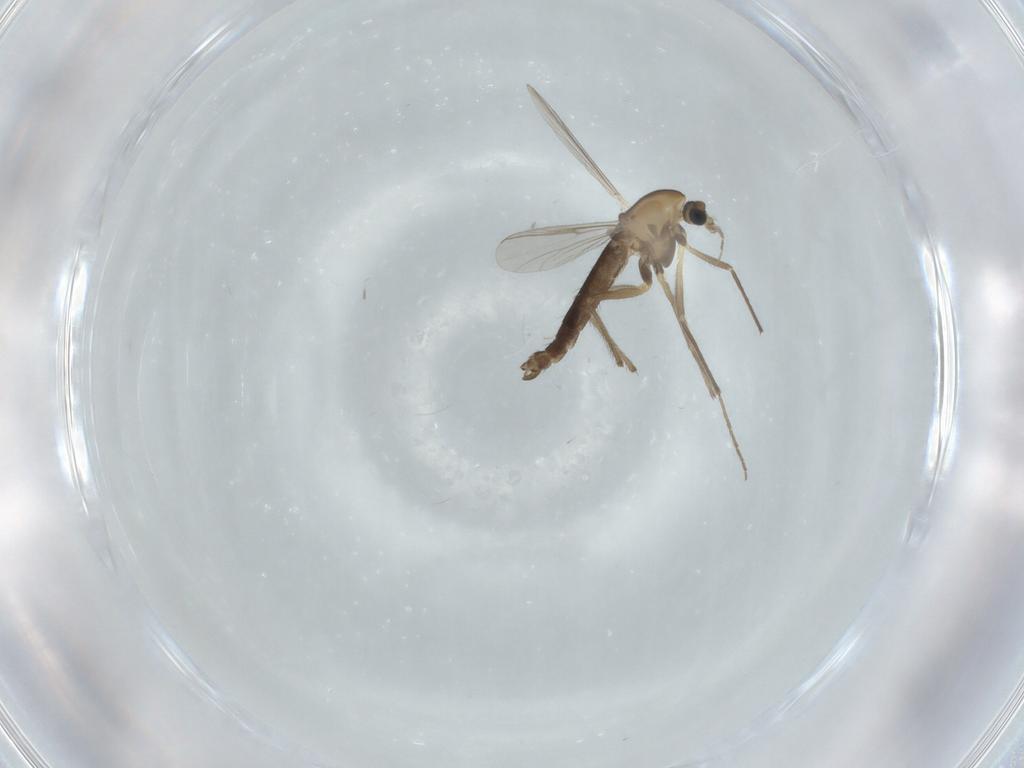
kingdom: Animalia
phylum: Arthropoda
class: Insecta
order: Diptera
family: Chironomidae
